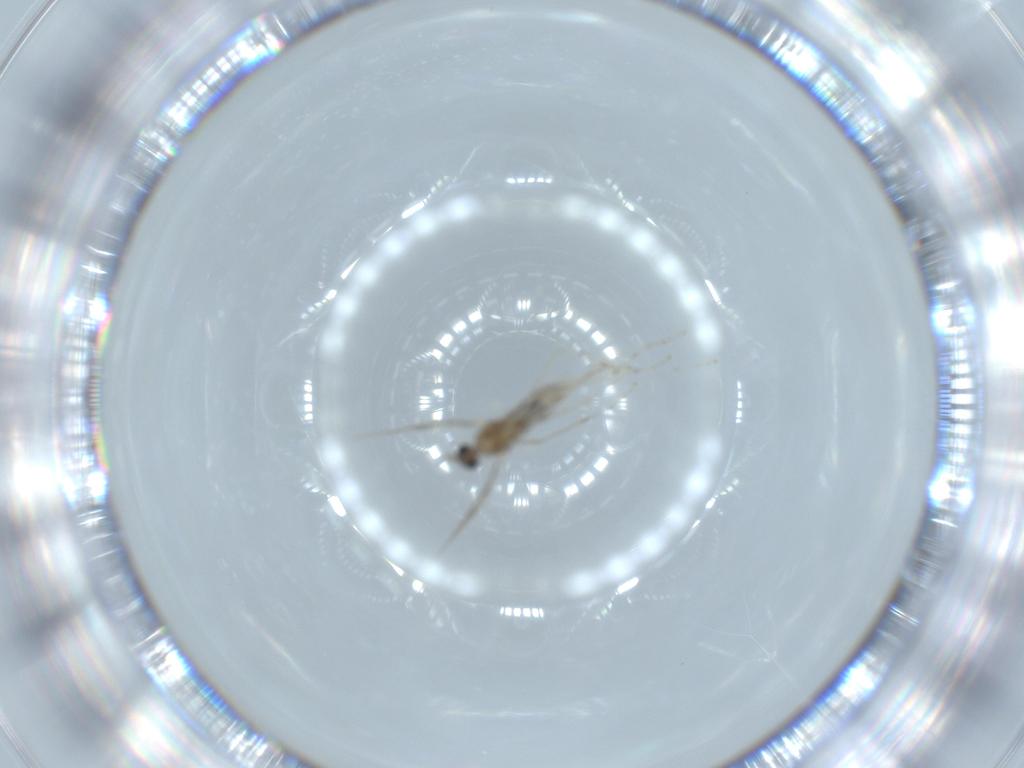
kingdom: Animalia
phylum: Arthropoda
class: Insecta
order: Diptera
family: Cecidomyiidae
